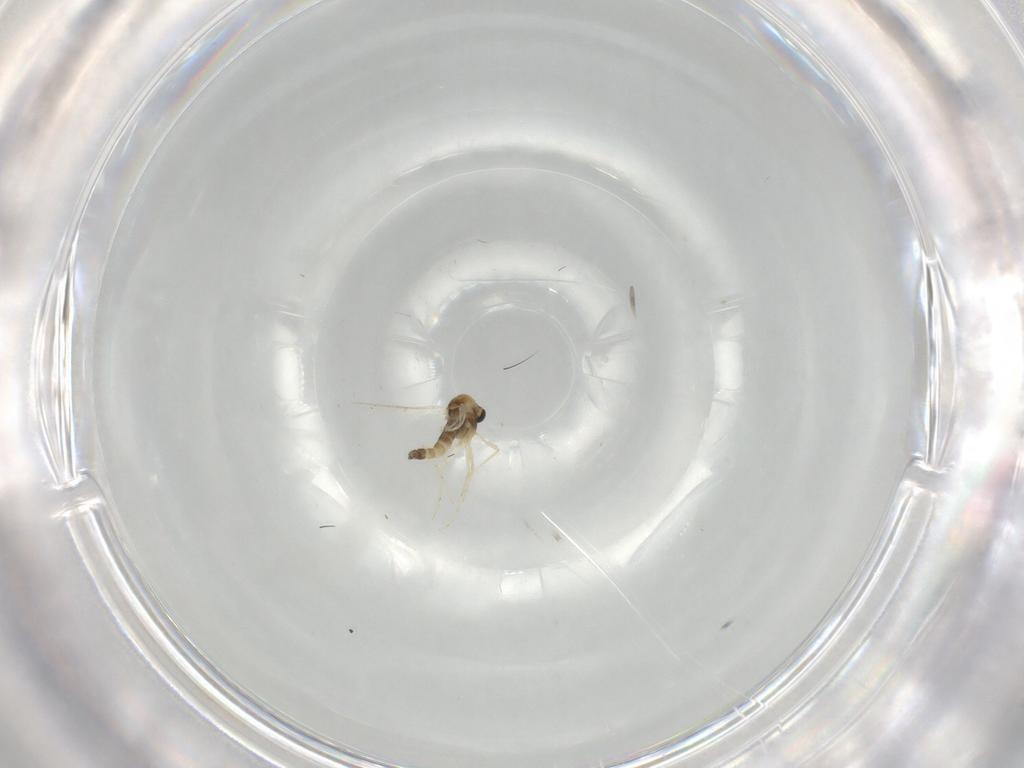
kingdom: Animalia
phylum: Arthropoda
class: Insecta
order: Diptera
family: Chironomidae
